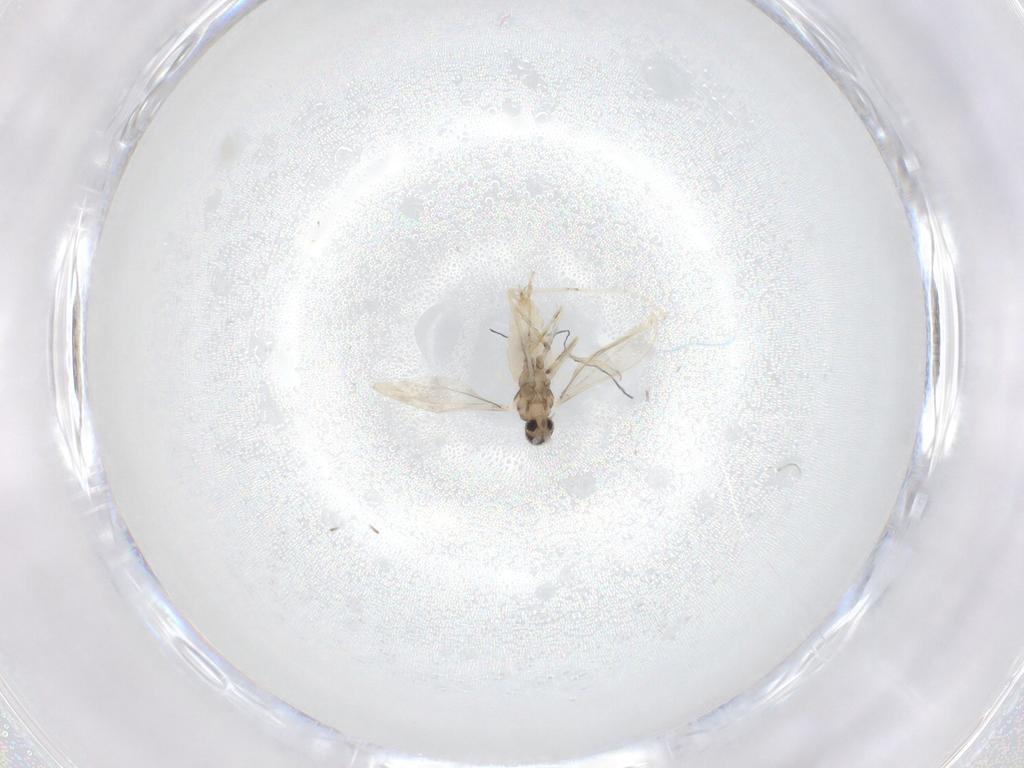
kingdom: Animalia
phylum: Arthropoda
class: Insecta
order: Diptera
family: Cecidomyiidae
